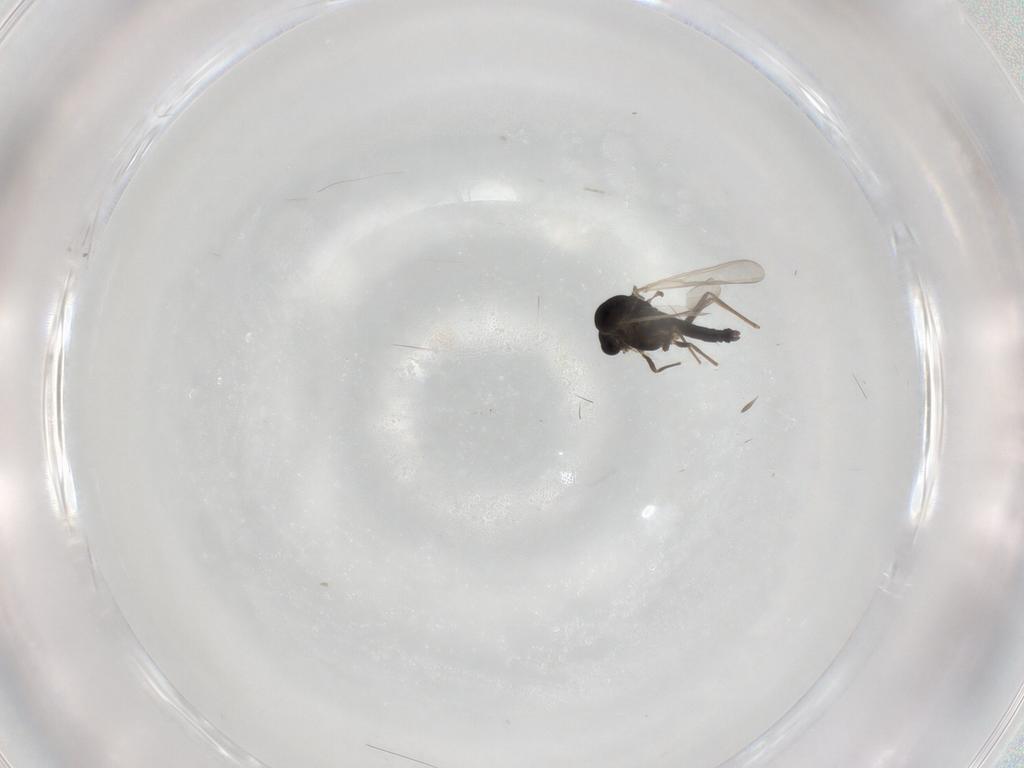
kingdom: Animalia
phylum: Arthropoda
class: Insecta
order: Diptera
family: Chironomidae
